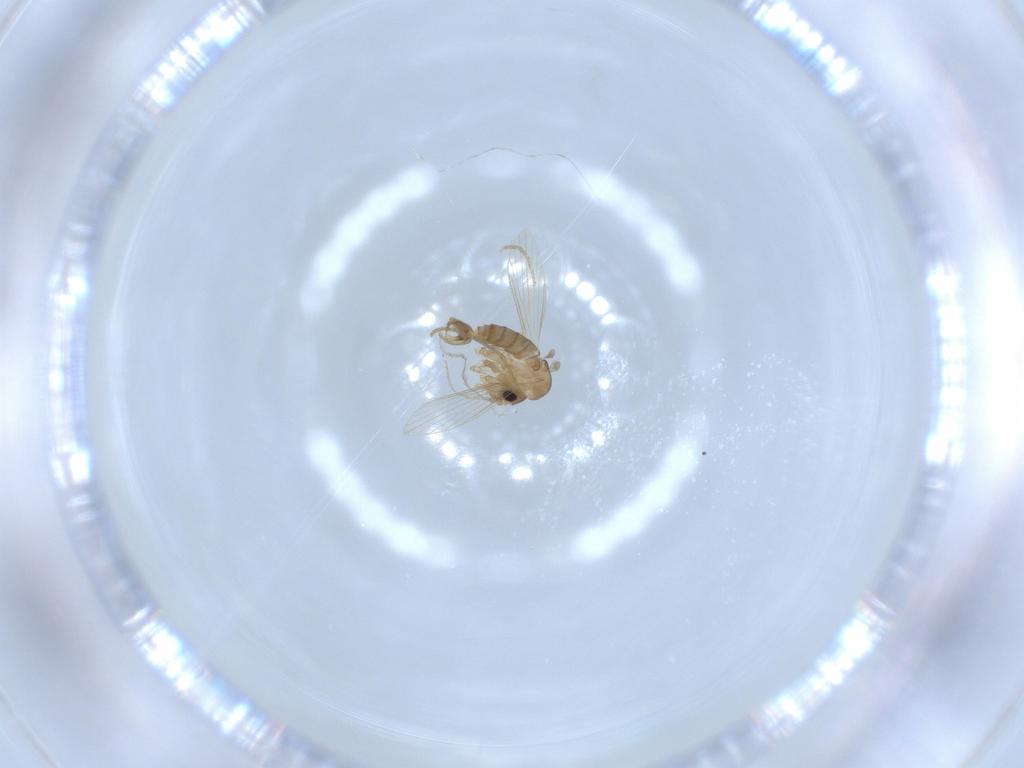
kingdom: Animalia
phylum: Arthropoda
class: Insecta
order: Diptera
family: Psychodidae
